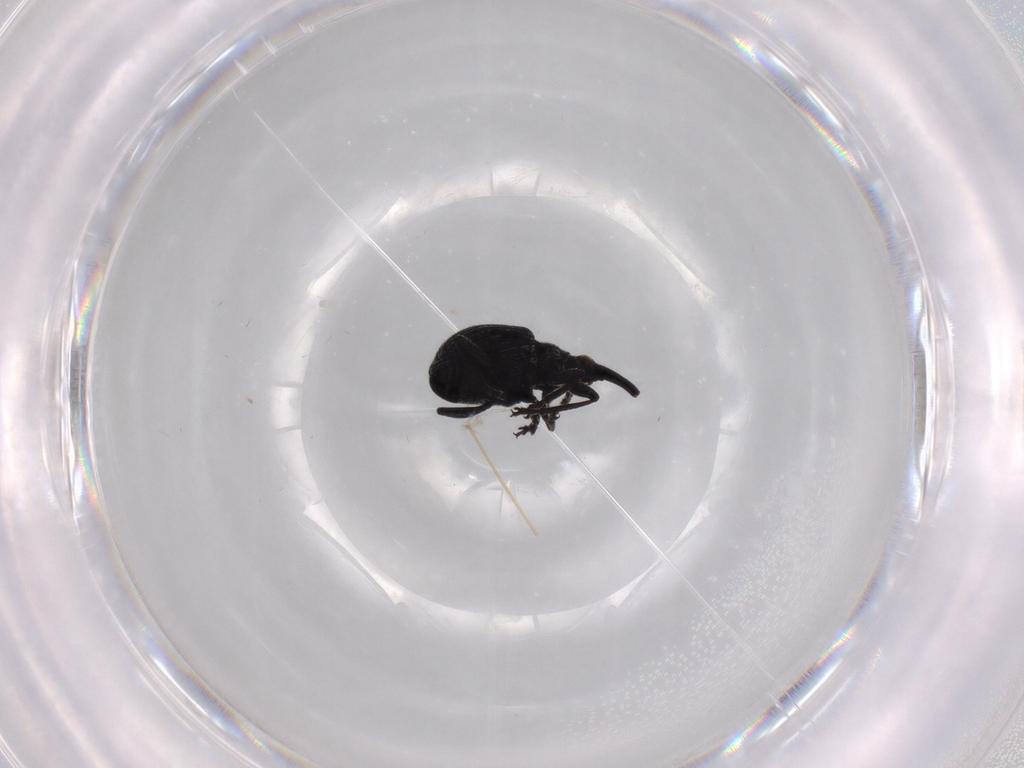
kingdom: Animalia
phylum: Arthropoda
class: Insecta
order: Coleoptera
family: Brentidae
